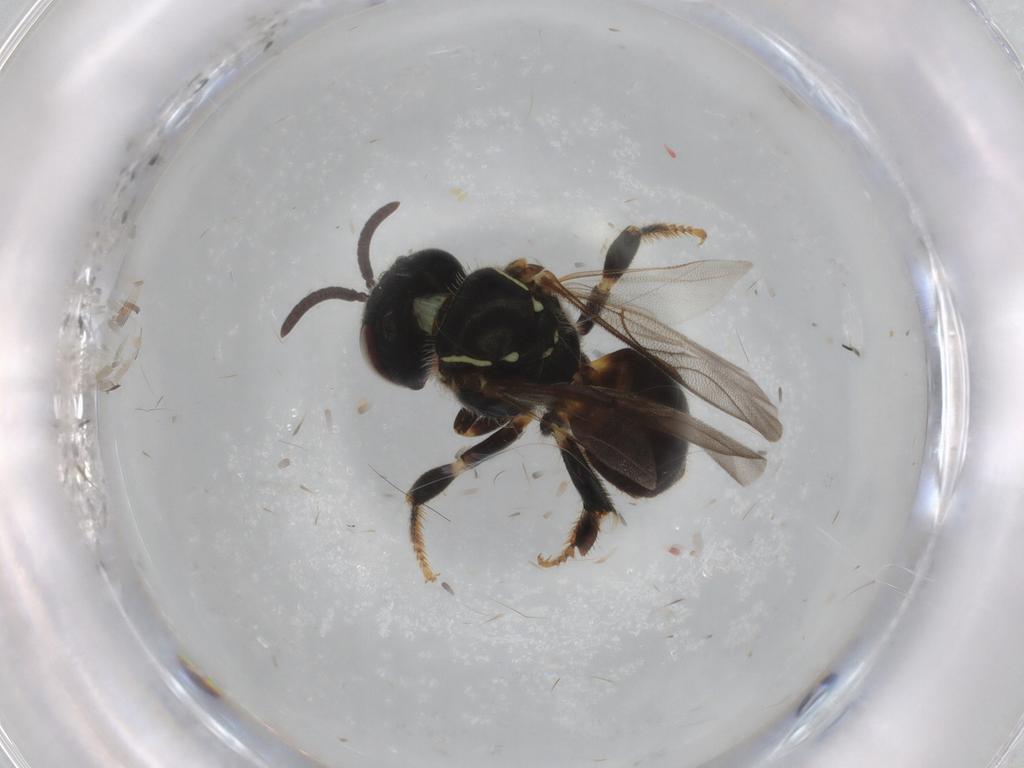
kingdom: Animalia
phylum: Arthropoda
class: Insecta
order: Hymenoptera
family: Apidae
